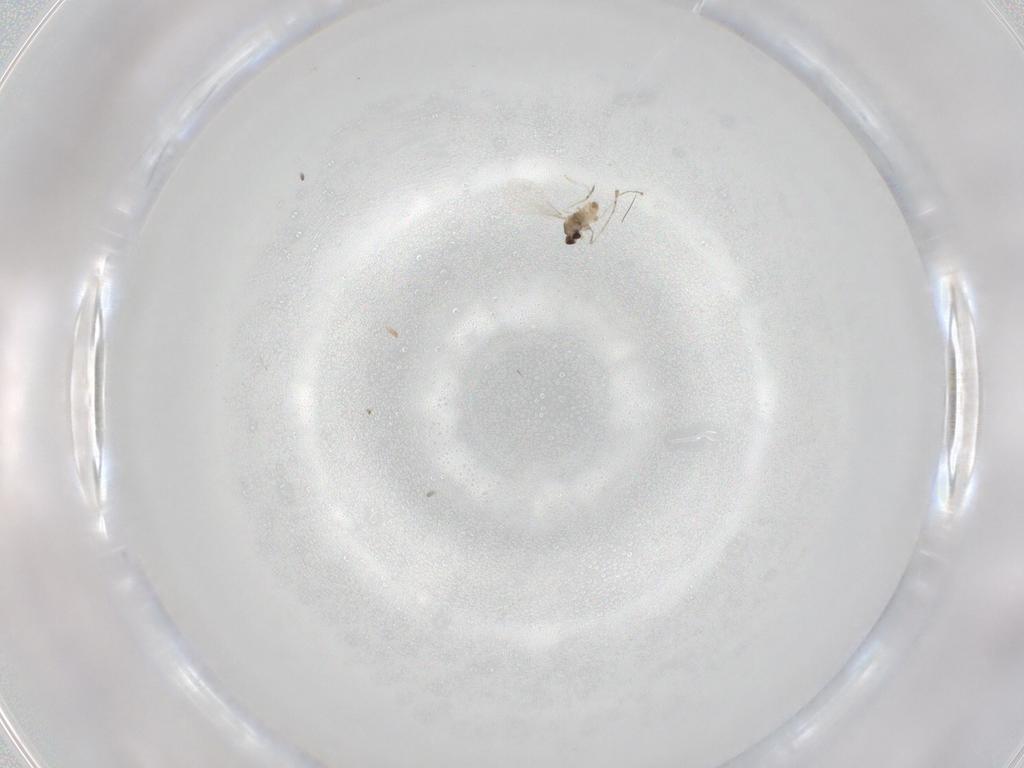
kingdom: Animalia
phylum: Arthropoda
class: Insecta
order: Diptera
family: Cecidomyiidae
